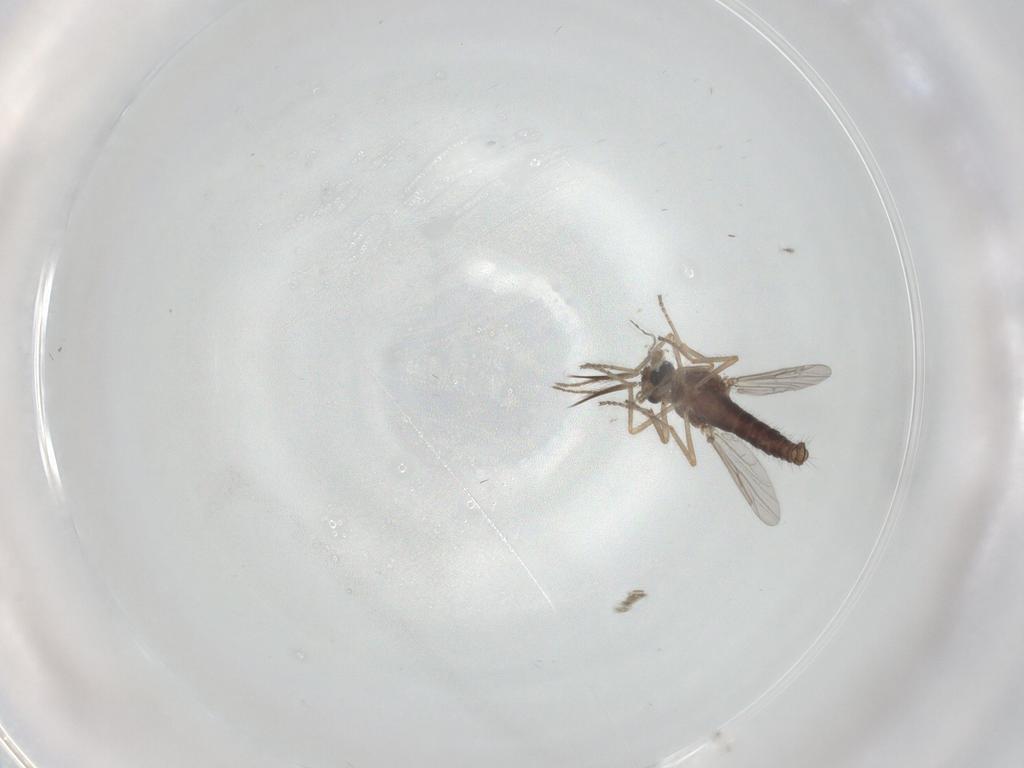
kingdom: Animalia
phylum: Arthropoda
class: Insecta
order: Diptera
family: Ceratopogonidae
